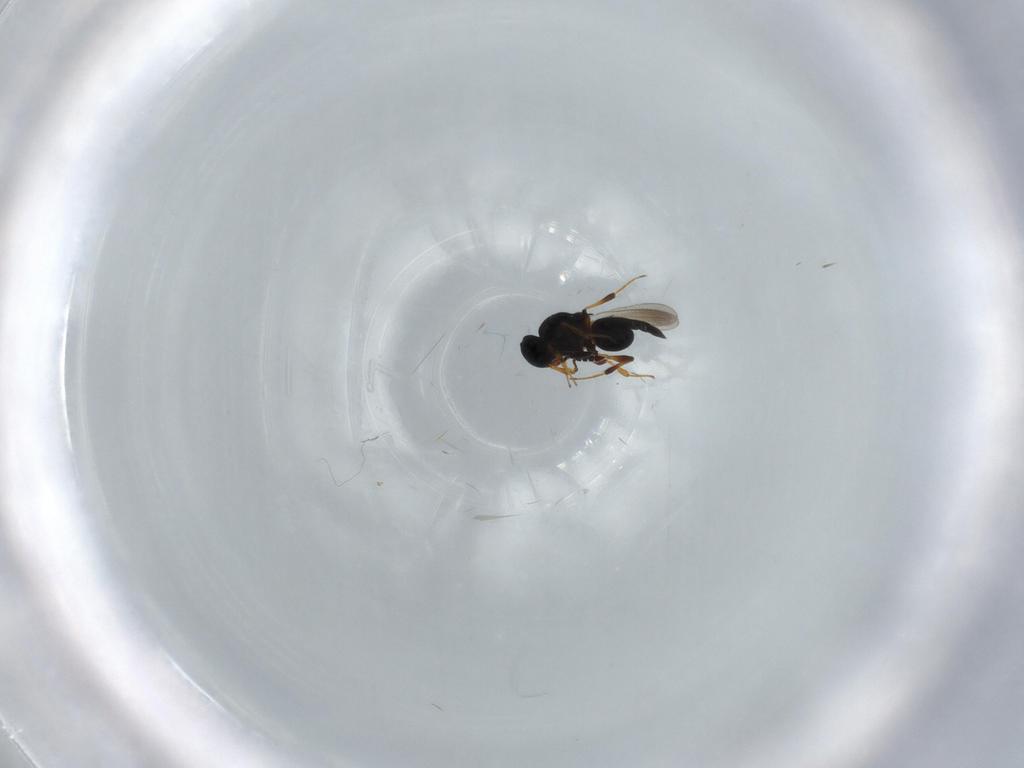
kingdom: Animalia
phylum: Arthropoda
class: Insecta
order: Hymenoptera
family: Platygastridae
